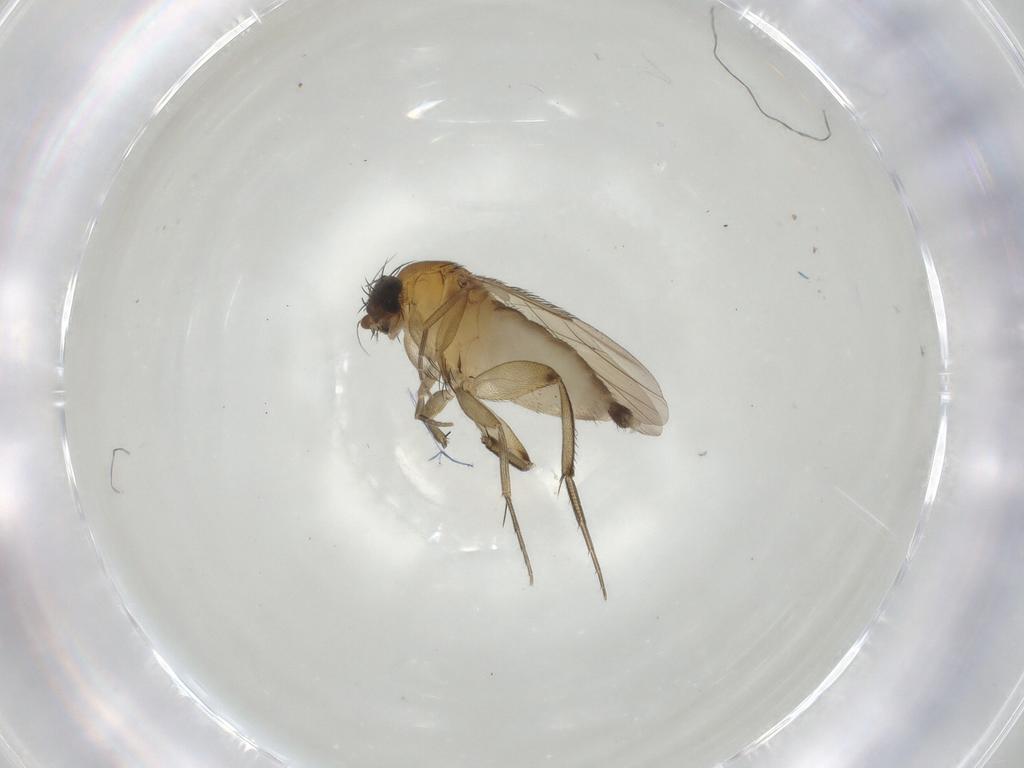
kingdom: Animalia
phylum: Arthropoda
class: Insecta
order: Diptera
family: Phoridae
